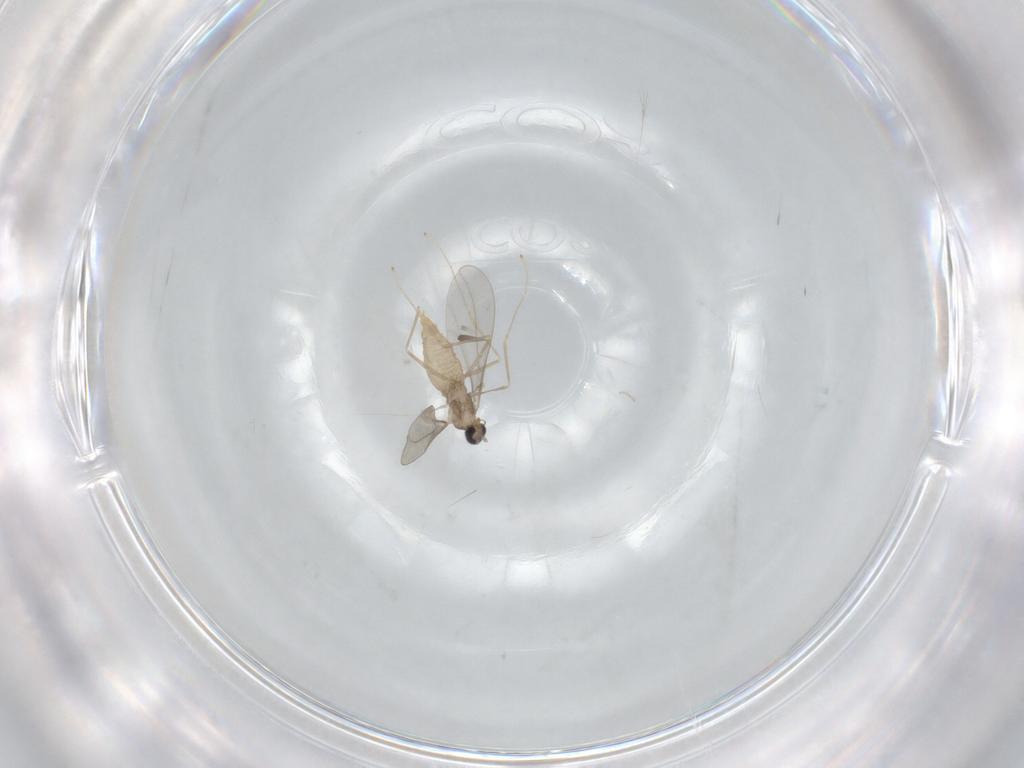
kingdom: Animalia
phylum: Arthropoda
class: Insecta
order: Diptera
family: Cecidomyiidae
